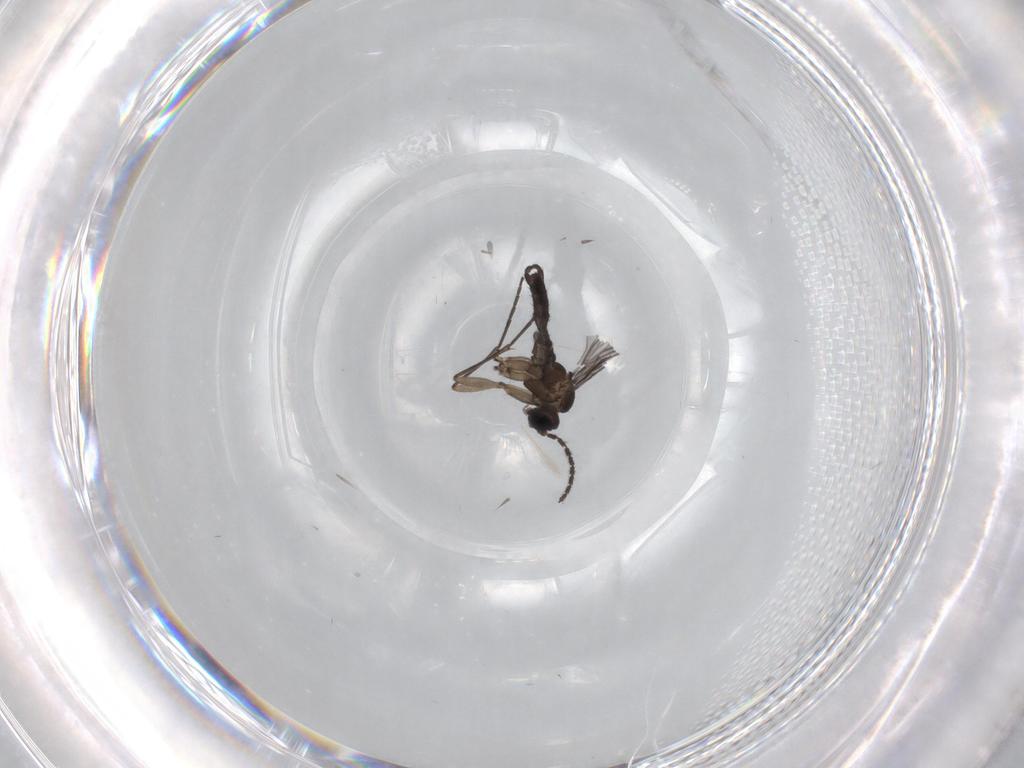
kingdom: Animalia
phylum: Arthropoda
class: Insecta
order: Diptera
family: Sciaridae
